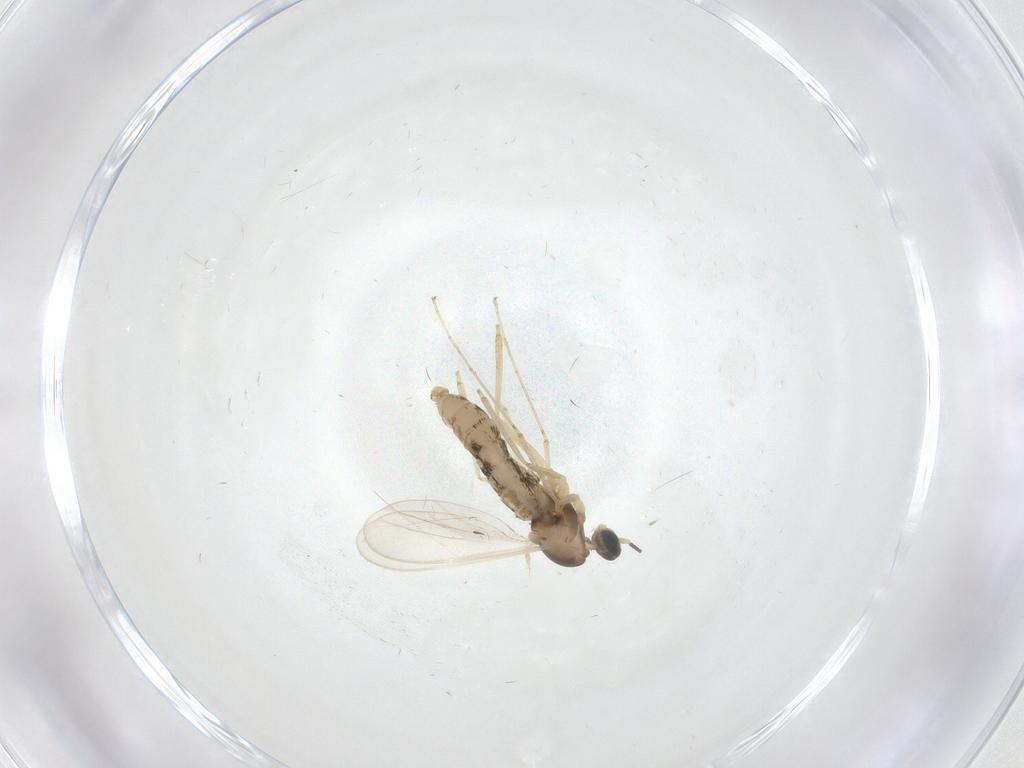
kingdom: Animalia
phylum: Arthropoda
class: Insecta
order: Diptera
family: Cecidomyiidae
